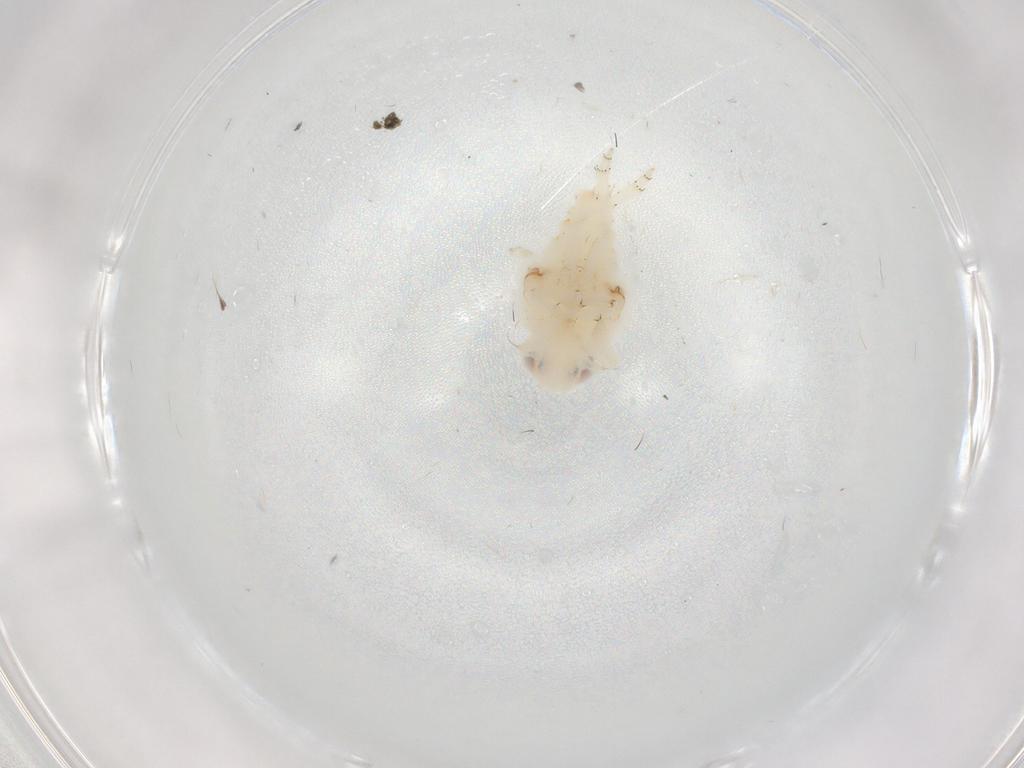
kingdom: Animalia
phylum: Arthropoda
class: Insecta
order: Hemiptera
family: Nogodinidae
